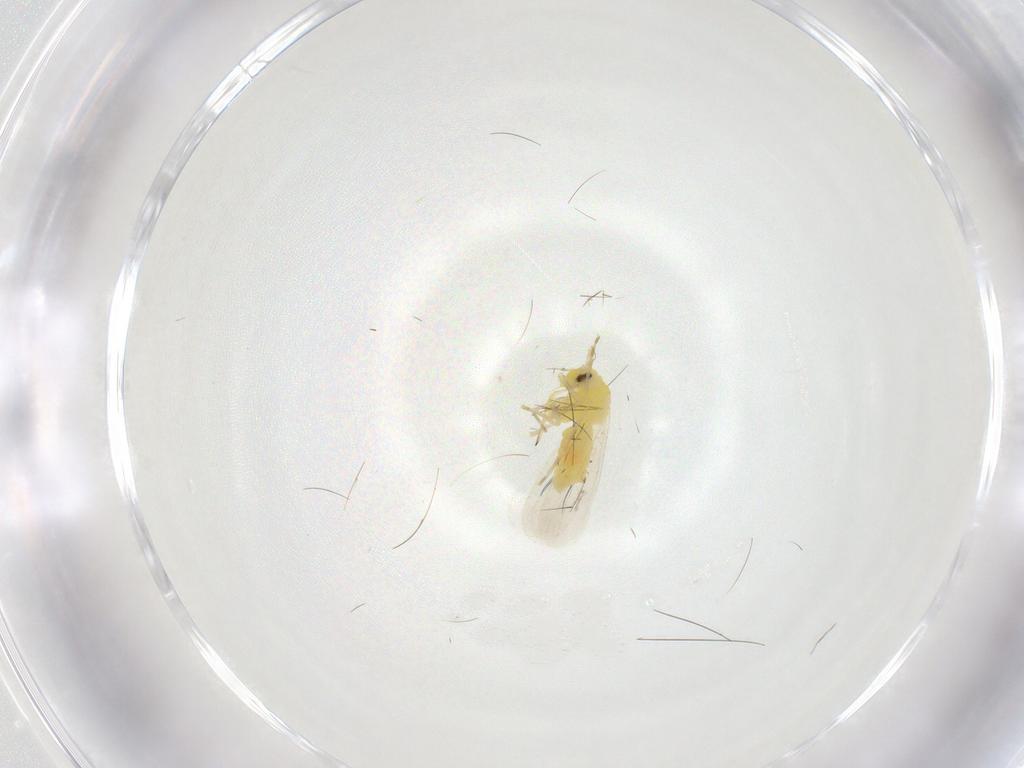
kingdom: Animalia
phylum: Arthropoda
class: Insecta
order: Hemiptera
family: Aleyrodidae
